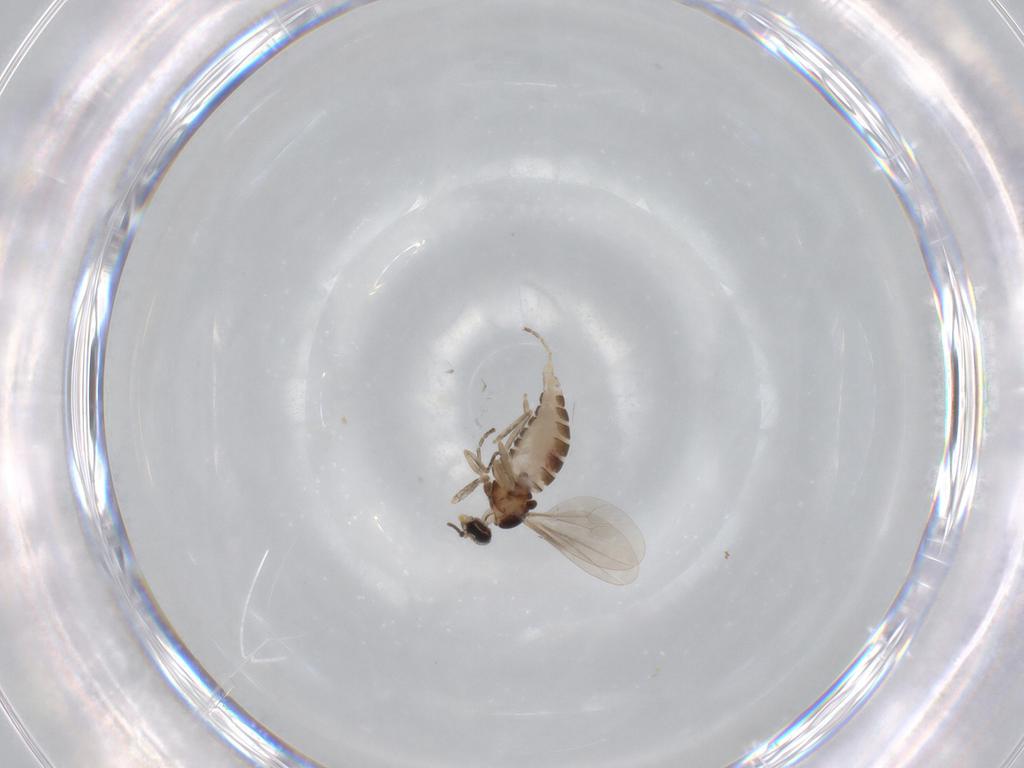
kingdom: Animalia
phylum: Arthropoda
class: Insecta
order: Diptera
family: Cecidomyiidae
